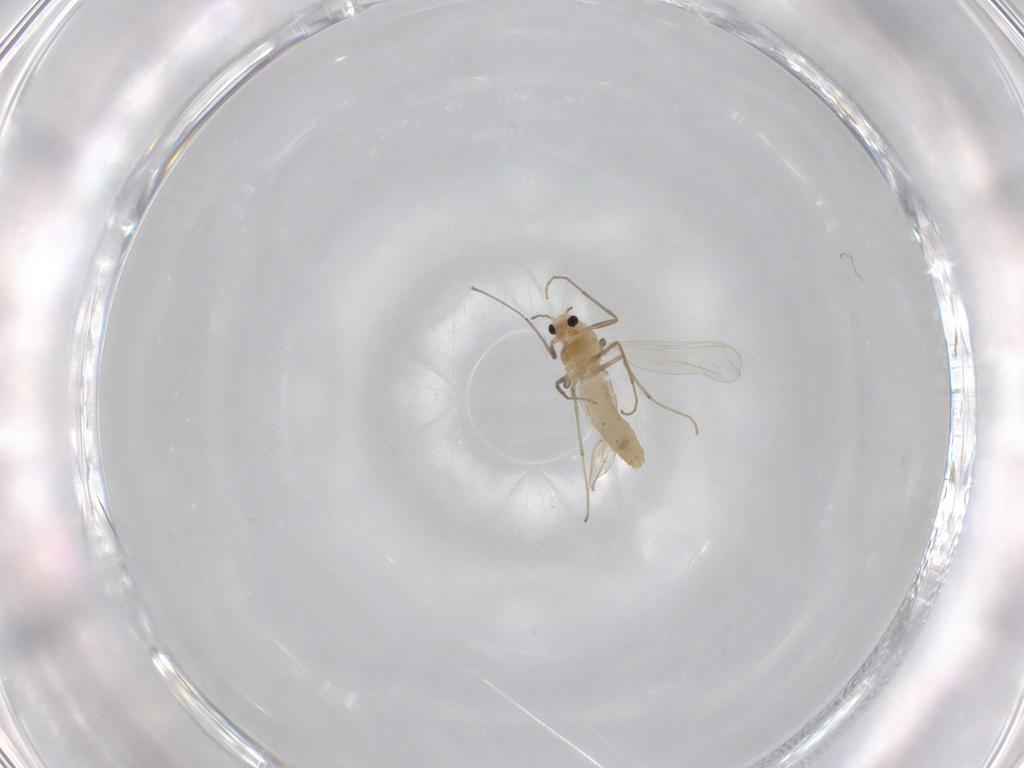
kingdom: Animalia
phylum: Arthropoda
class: Insecta
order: Diptera
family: Chironomidae
